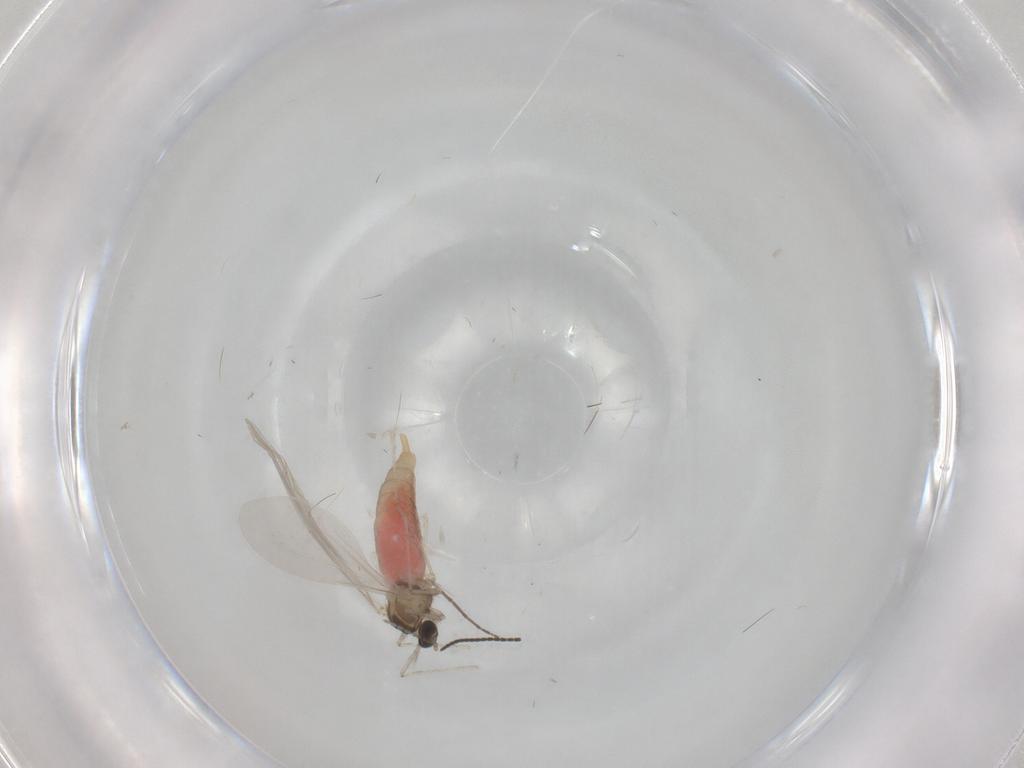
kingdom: Animalia
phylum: Arthropoda
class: Insecta
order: Diptera
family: Cecidomyiidae
